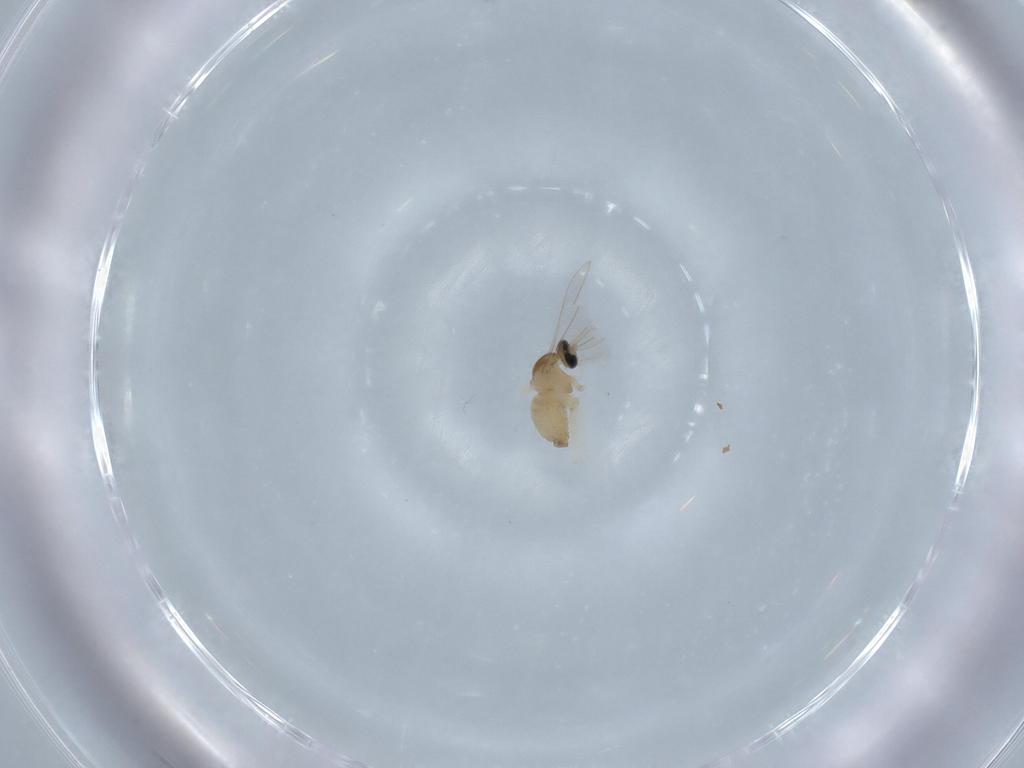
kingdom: Animalia
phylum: Arthropoda
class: Insecta
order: Diptera
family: Cecidomyiidae
